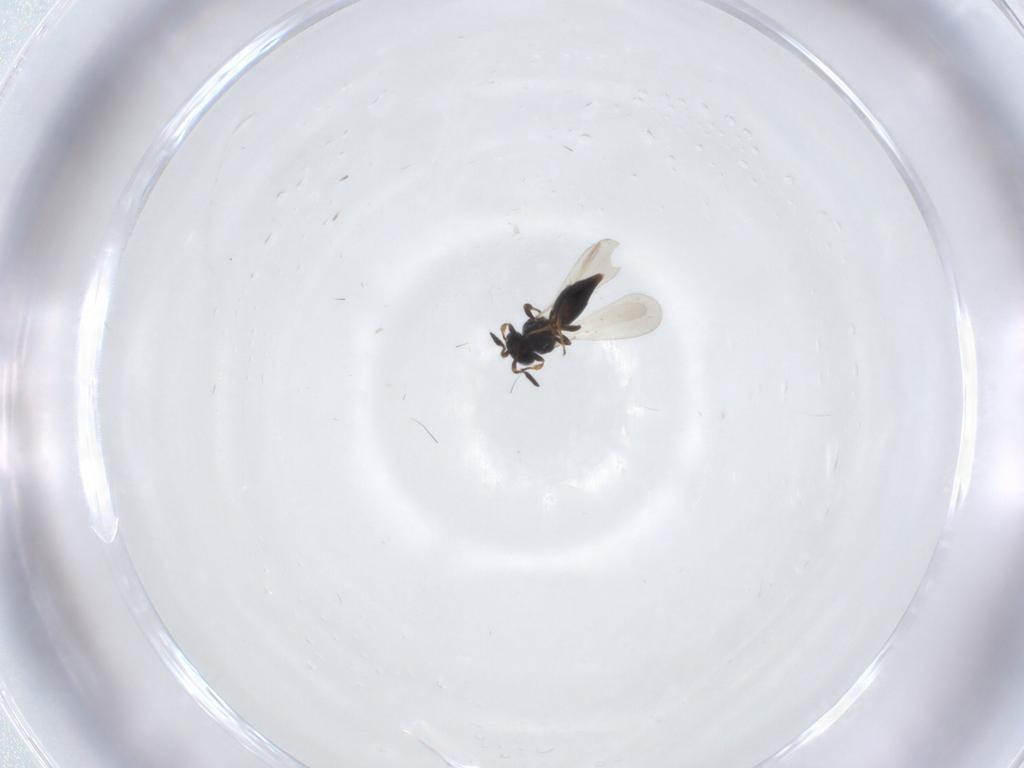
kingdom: Animalia
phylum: Arthropoda
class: Insecta
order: Hymenoptera
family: Platygastridae
